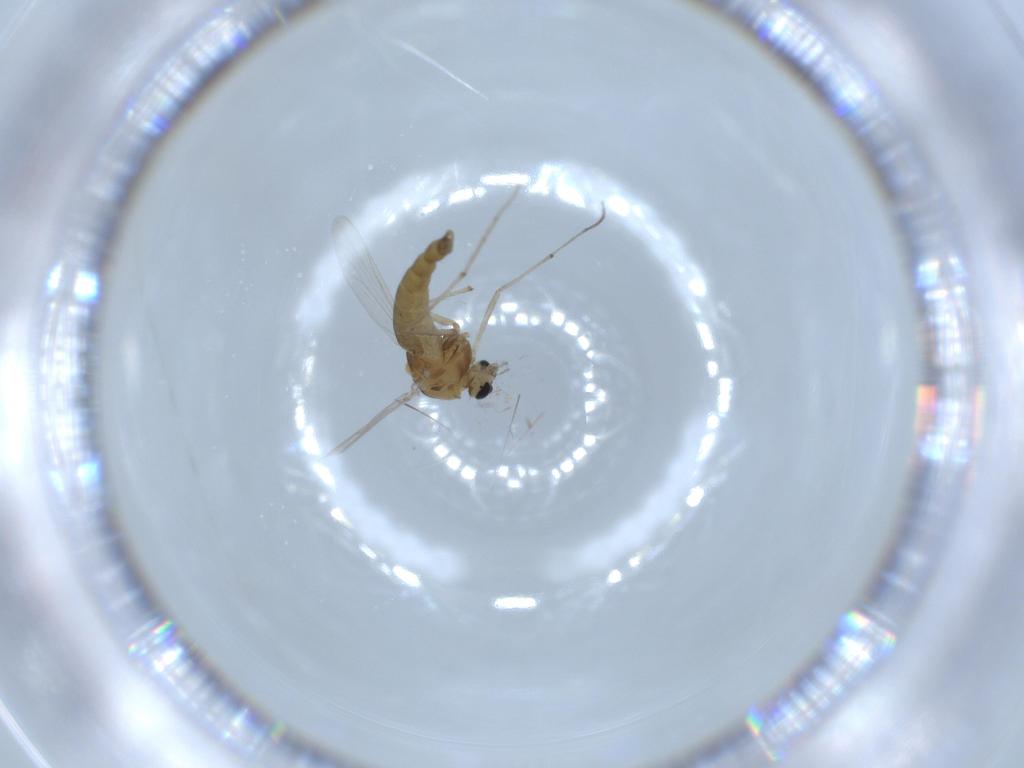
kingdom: Animalia
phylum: Arthropoda
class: Insecta
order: Diptera
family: Chironomidae
